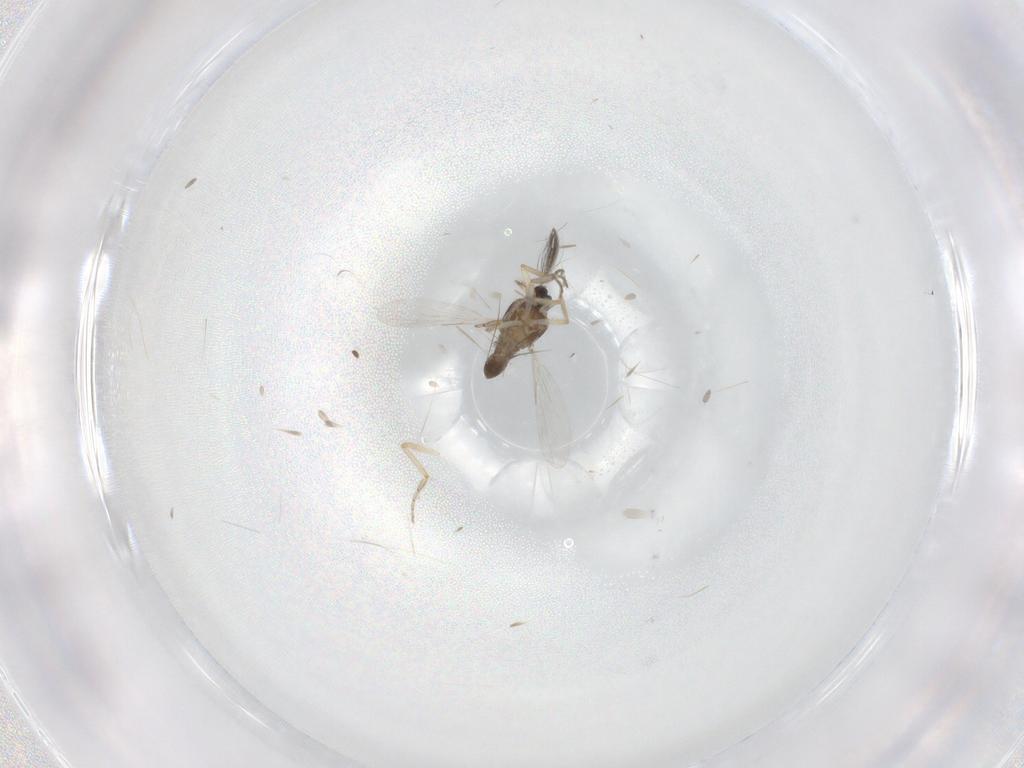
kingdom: Animalia
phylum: Arthropoda
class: Insecta
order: Diptera
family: Ceratopogonidae
